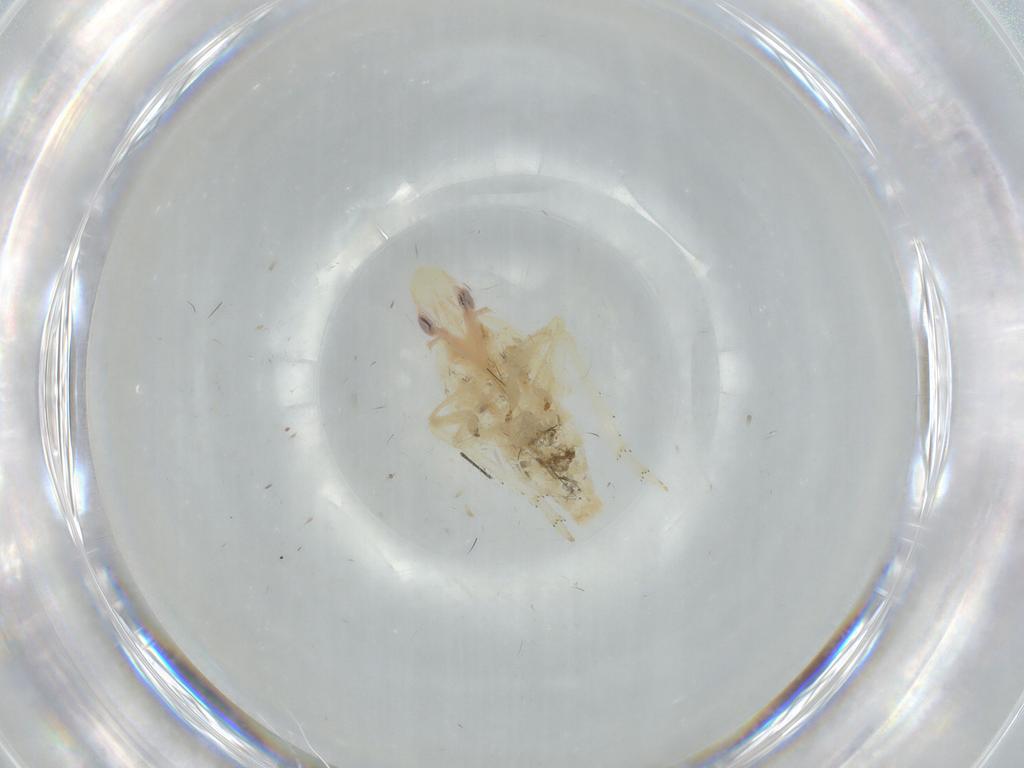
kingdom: Animalia
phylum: Arthropoda
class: Insecta
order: Hemiptera
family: Tropiduchidae
